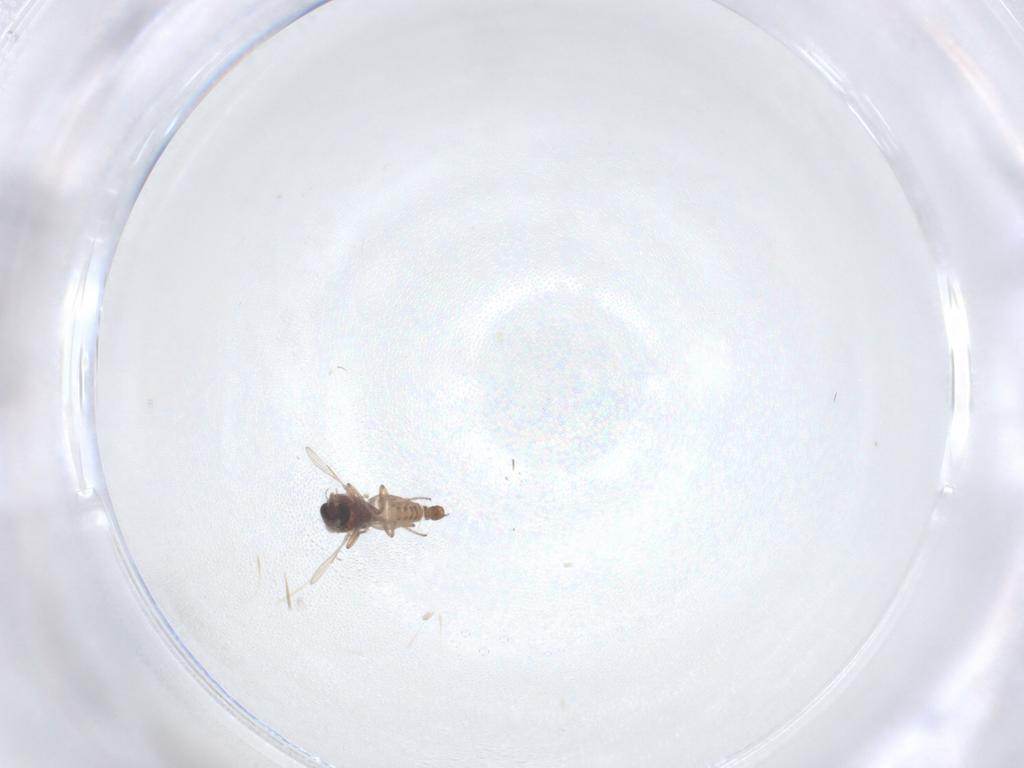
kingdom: Animalia
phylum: Arthropoda
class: Insecta
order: Diptera
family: Ceratopogonidae
